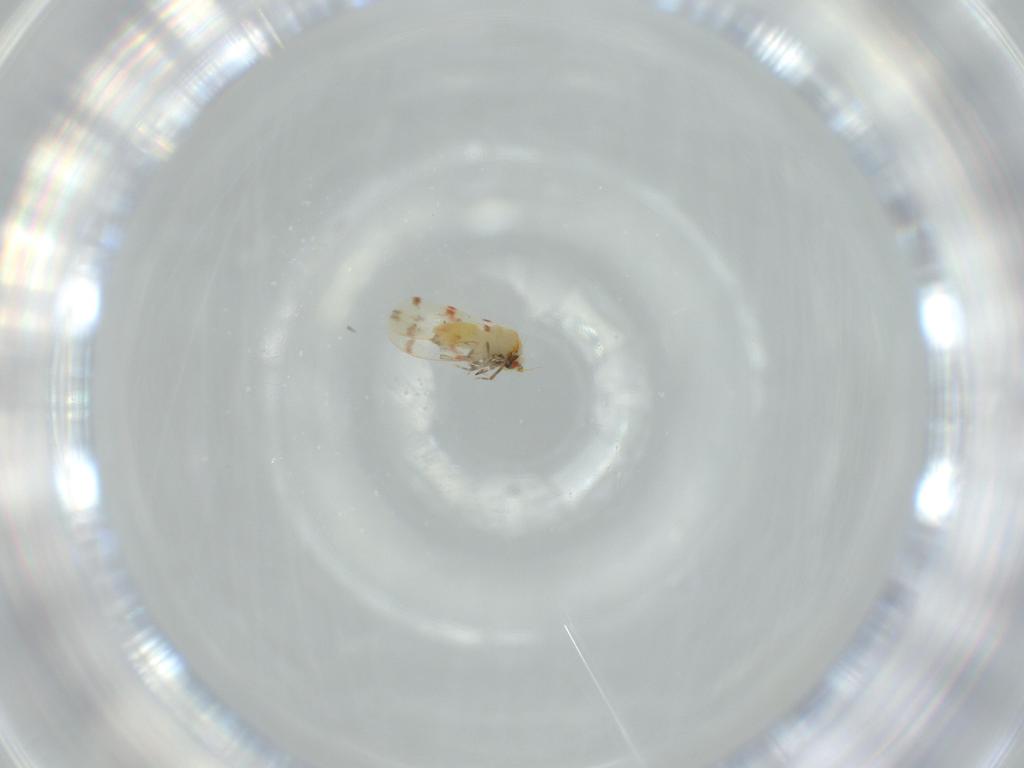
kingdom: Animalia
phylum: Arthropoda
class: Insecta
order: Hemiptera
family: Aleyrodidae
